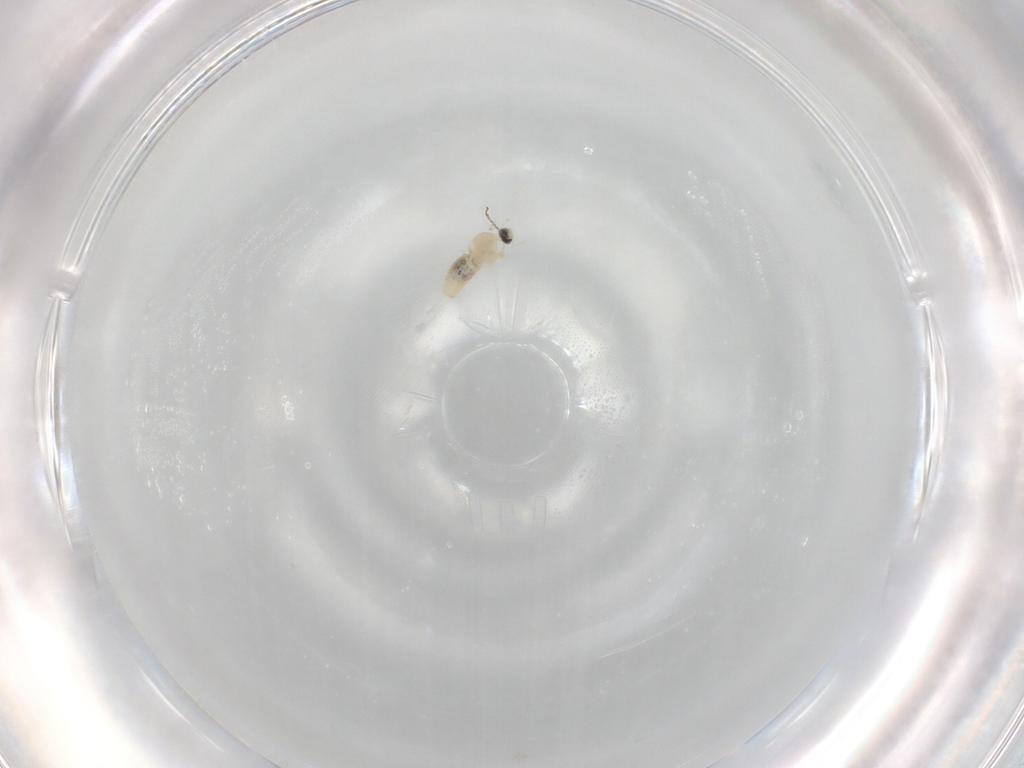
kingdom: Animalia
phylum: Arthropoda
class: Insecta
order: Diptera
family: Cecidomyiidae
